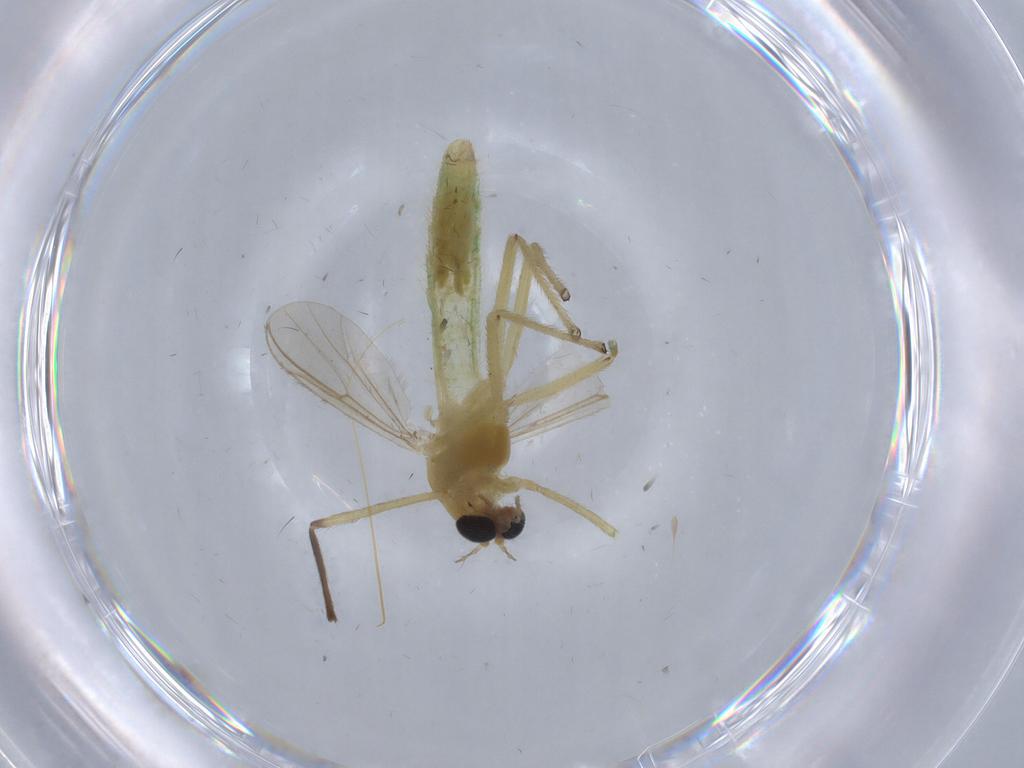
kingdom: Animalia
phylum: Arthropoda
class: Insecta
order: Diptera
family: Chironomidae
